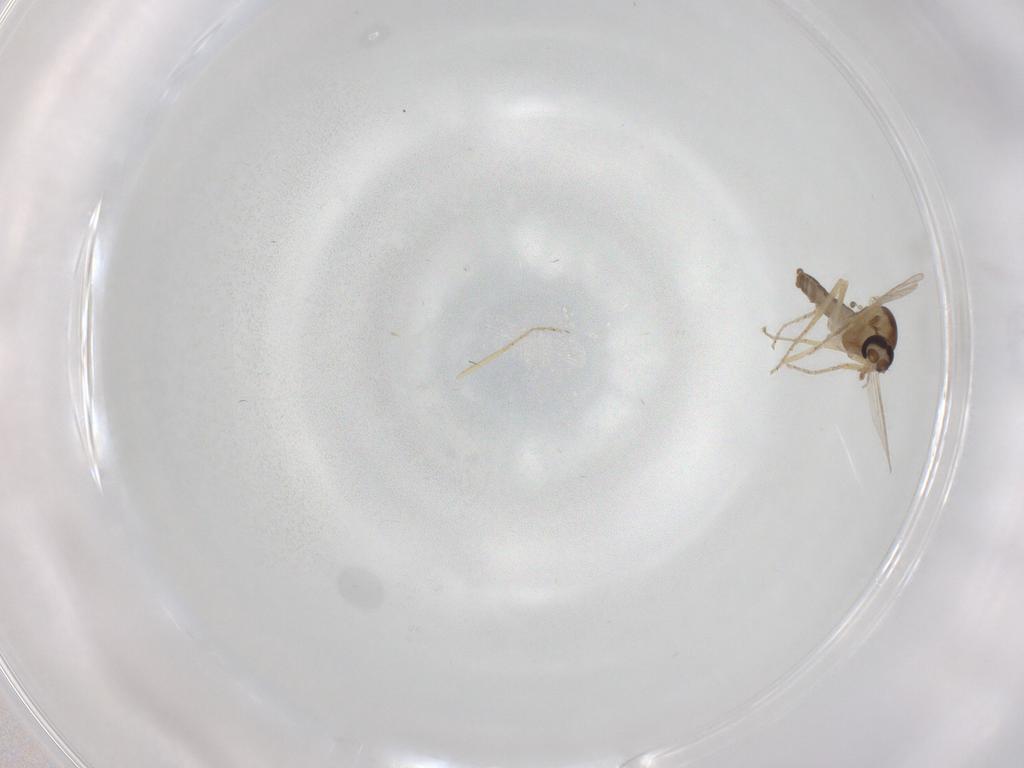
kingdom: Animalia
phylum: Arthropoda
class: Insecta
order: Diptera
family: Ceratopogonidae
